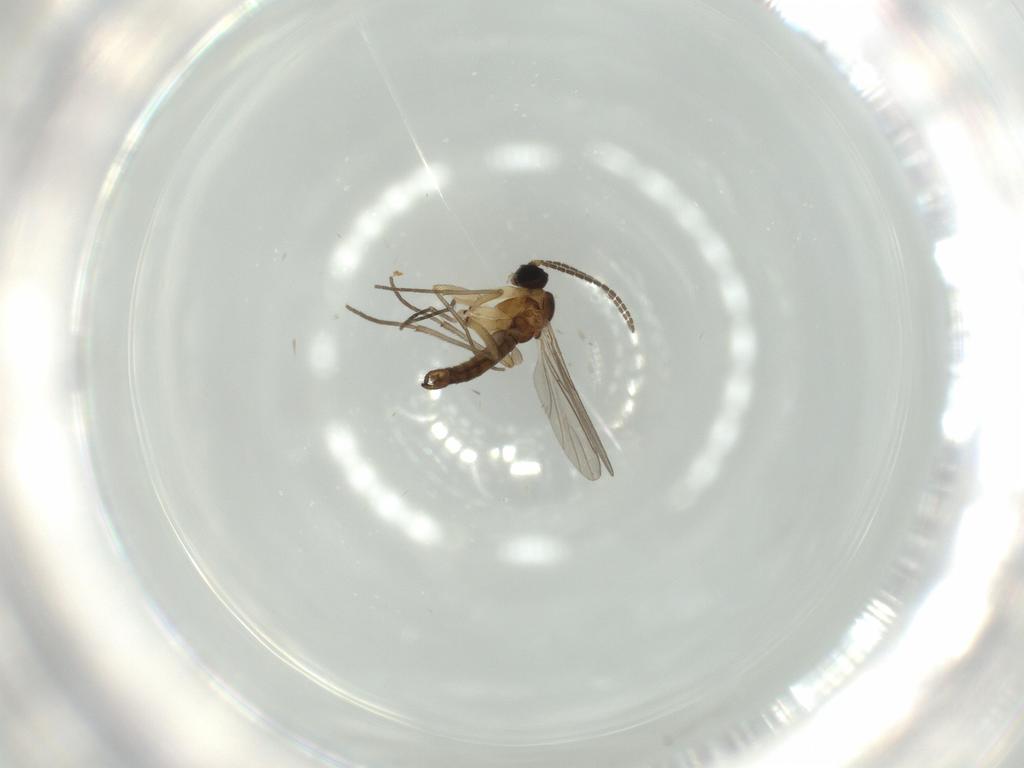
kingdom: Animalia
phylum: Arthropoda
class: Insecta
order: Diptera
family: Sciaridae
